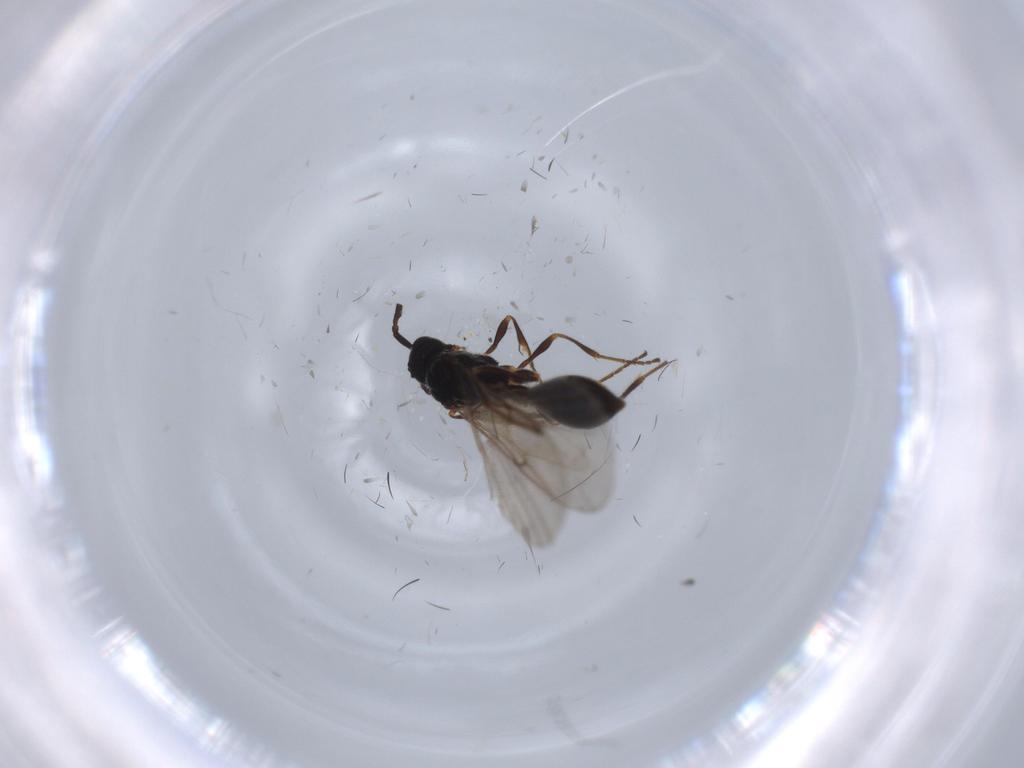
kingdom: Animalia
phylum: Arthropoda
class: Insecta
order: Hymenoptera
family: Diapriidae
